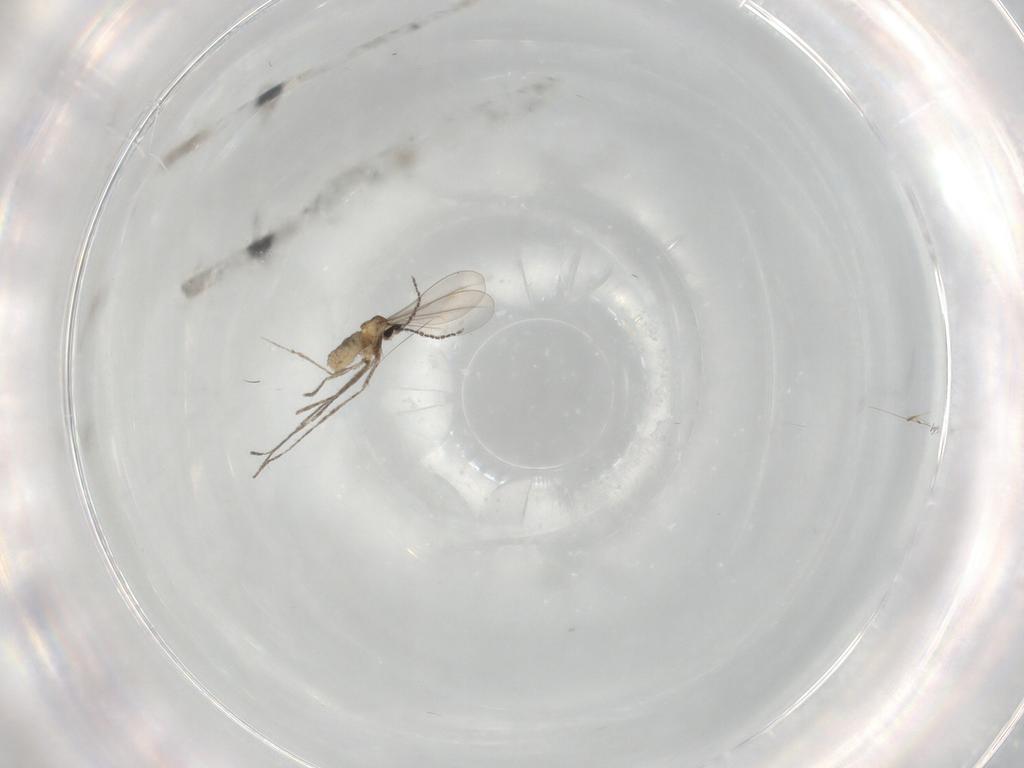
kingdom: Animalia
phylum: Arthropoda
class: Insecta
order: Diptera
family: Cecidomyiidae
